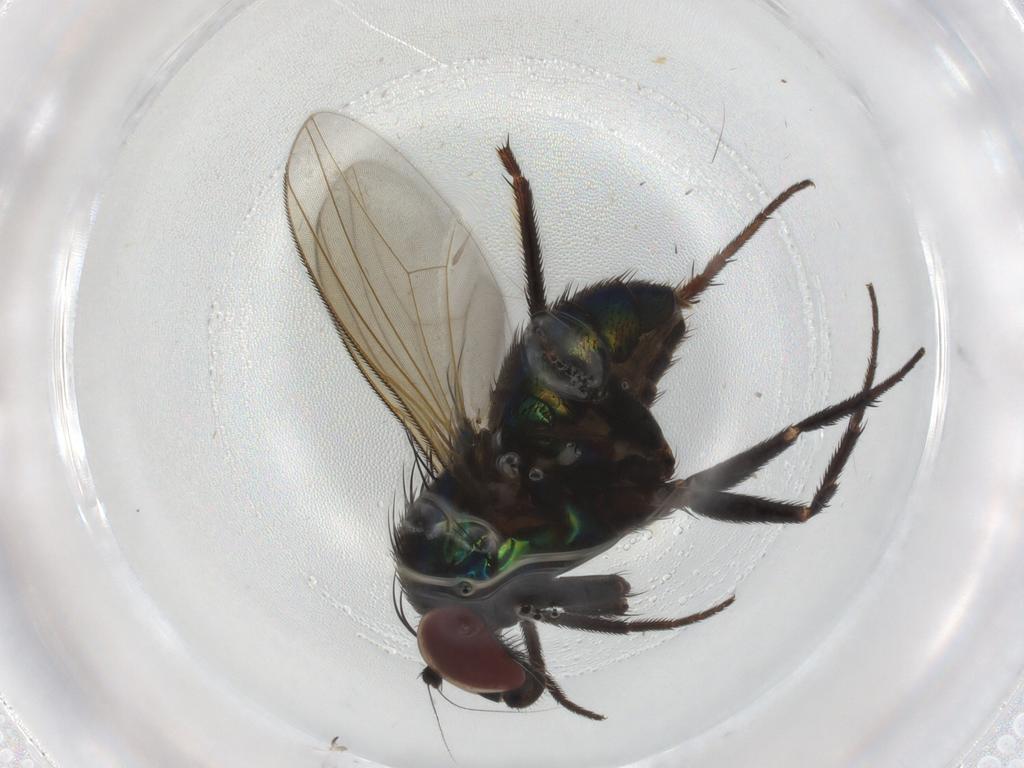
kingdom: Animalia
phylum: Arthropoda
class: Insecta
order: Diptera
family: Dolichopodidae
